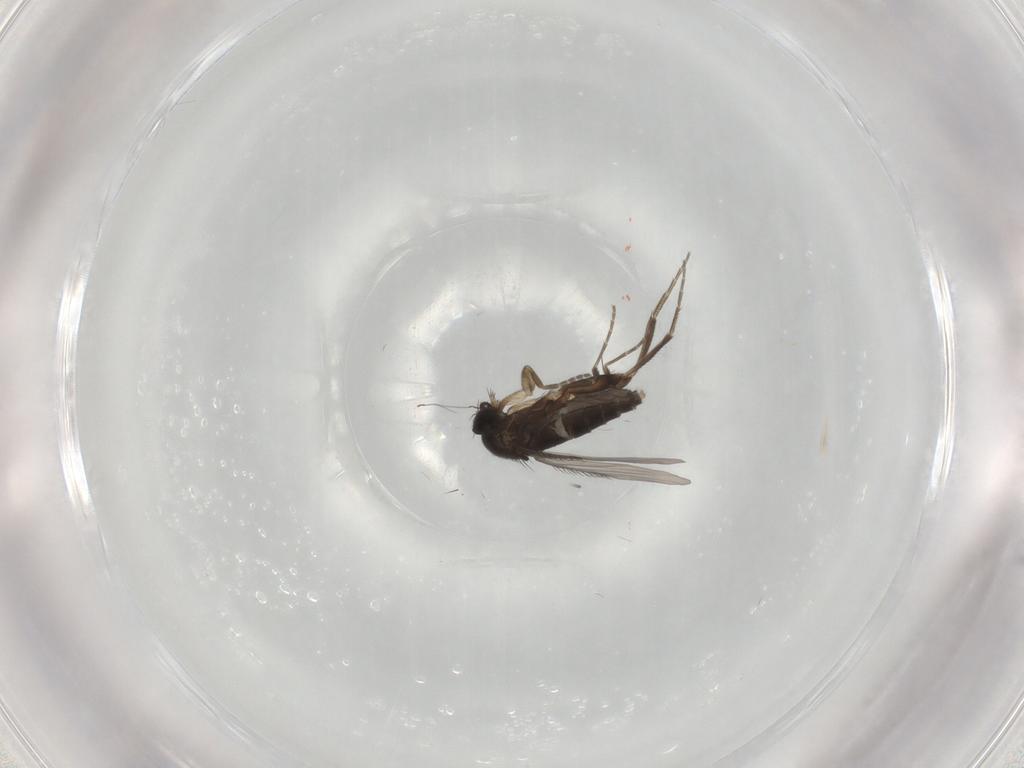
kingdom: Animalia
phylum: Arthropoda
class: Insecta
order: Diptera
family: Phoridae
